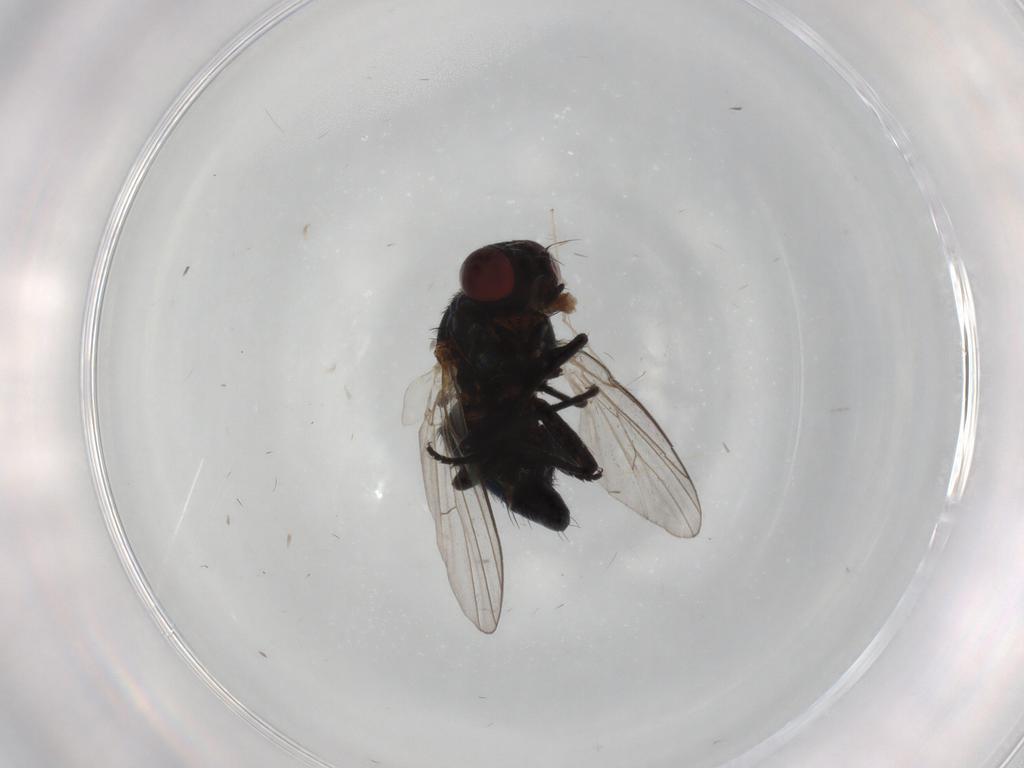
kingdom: Animalia
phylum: Arthropoda
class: Insecta
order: Diptera
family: Agromyzidae
